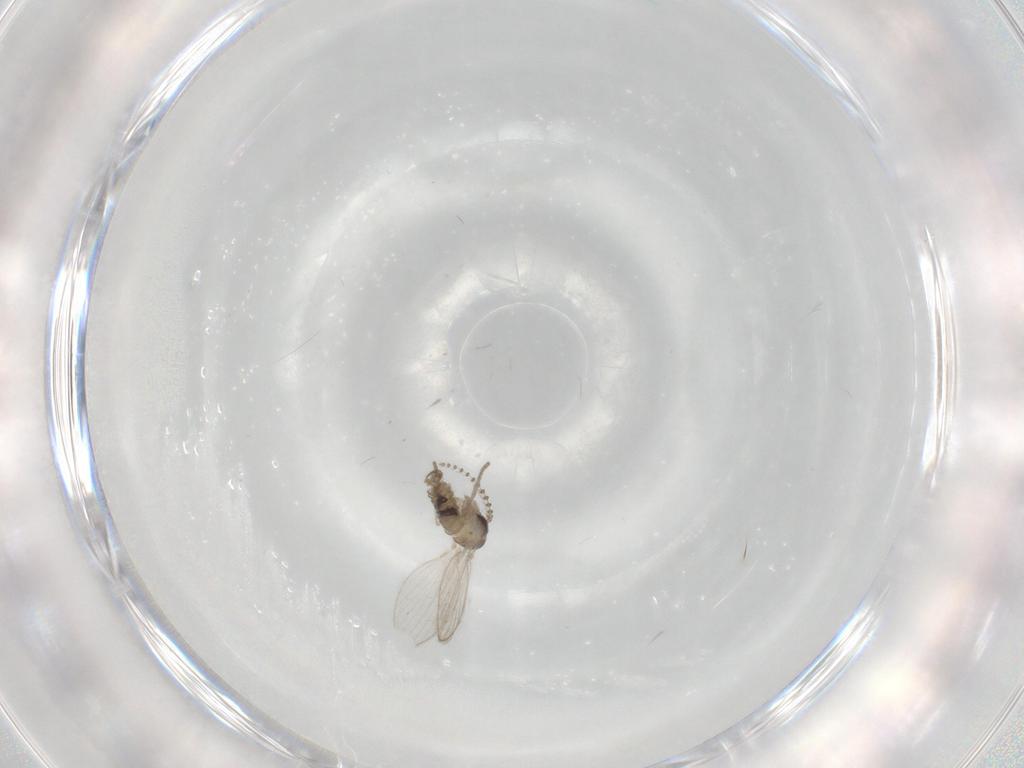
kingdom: Animalia
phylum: Arthropoda
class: Insecta
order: Diptera
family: Cecidomyiidae
